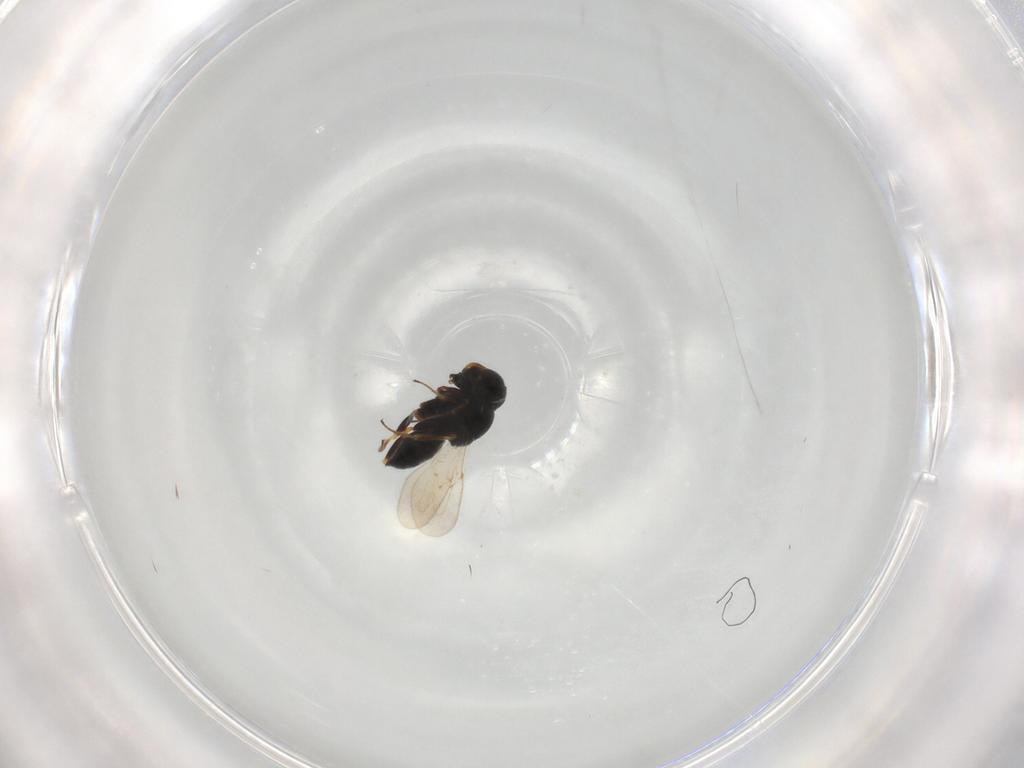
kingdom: Animalia
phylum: Arthropoda
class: Insecta
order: Coleoptera
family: Curculionidae
